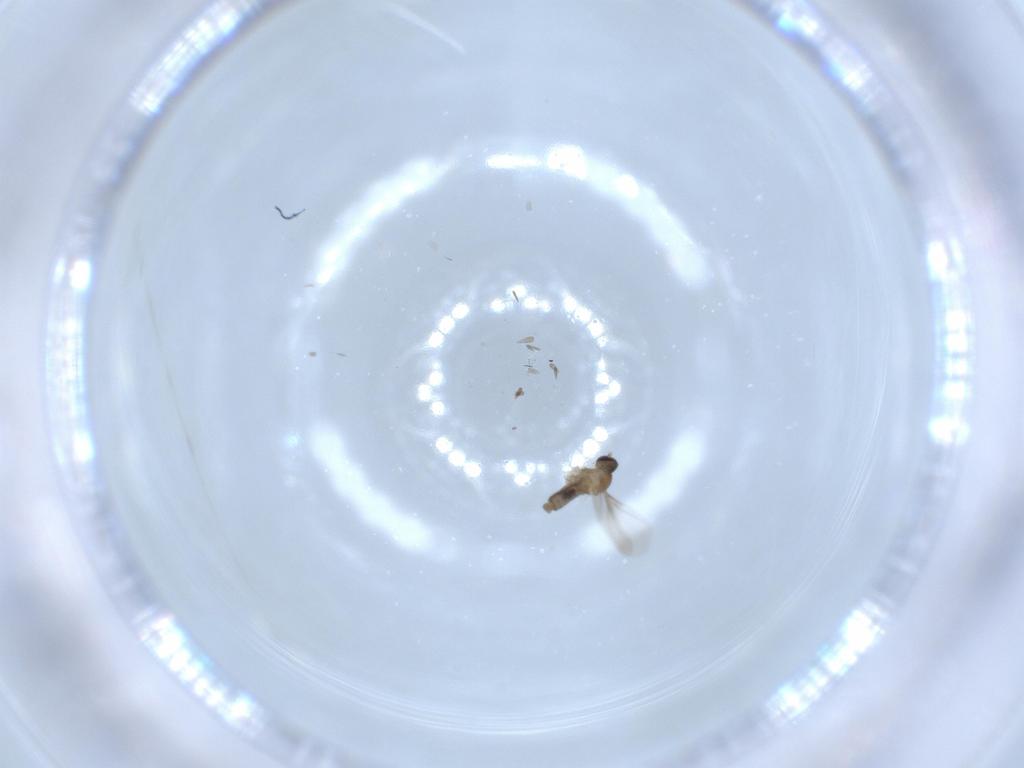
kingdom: Animalia
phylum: Arthropoda
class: Insecta
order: Diptera
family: Cecidomyiidae
